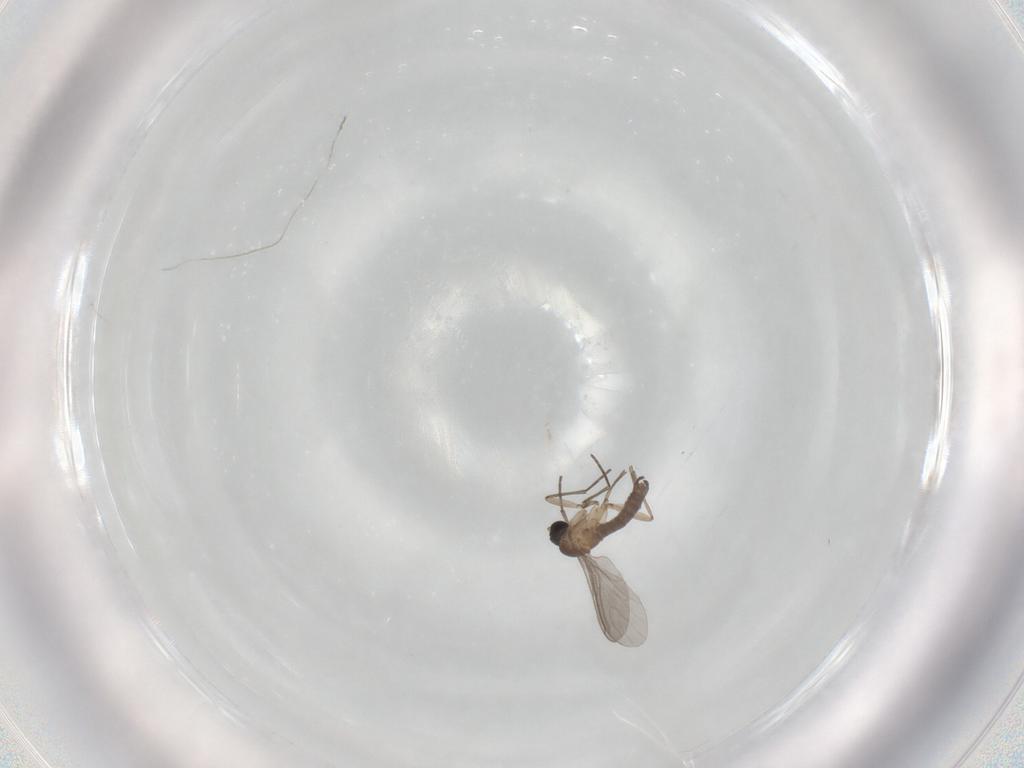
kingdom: Animalia
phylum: Arthropoda
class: Insecta
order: Diptera
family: Sciaridae
